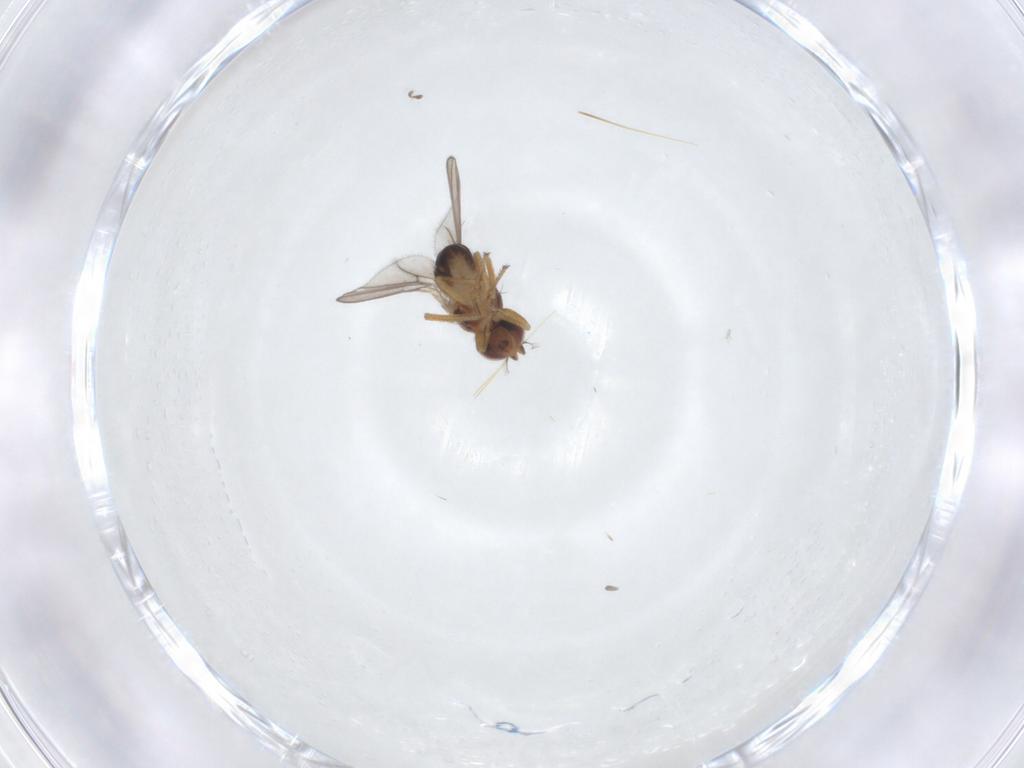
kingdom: Animalia
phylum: Arthropoda
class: Insecta
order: Diptera
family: Ephydridae
